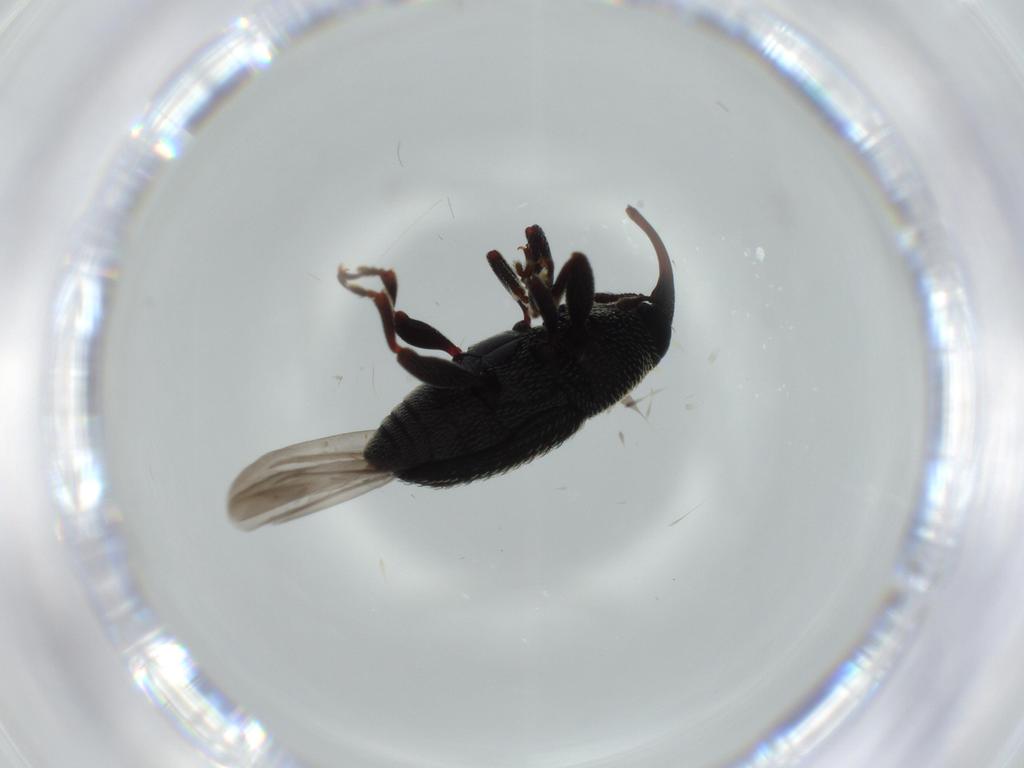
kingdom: Animalia
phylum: Arthropoda
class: Insecta
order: Coleoptera
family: Curculionidae
